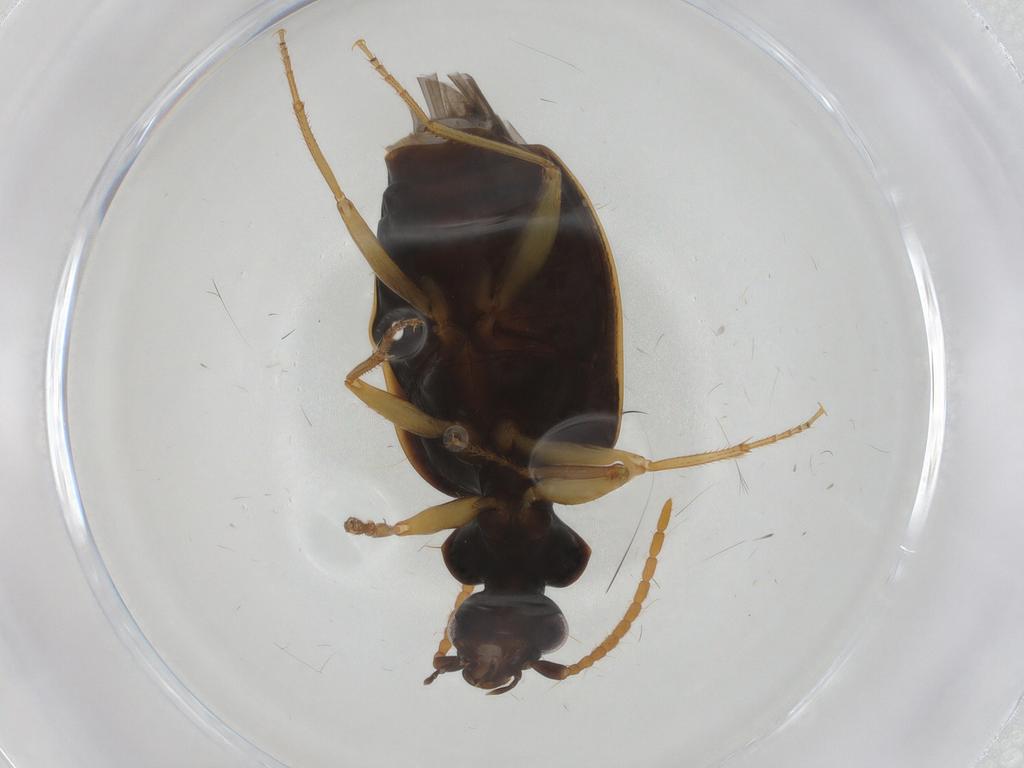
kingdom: Animalia
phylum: Arthropoda
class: Insecta
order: Coleoptera
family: Carabidae
